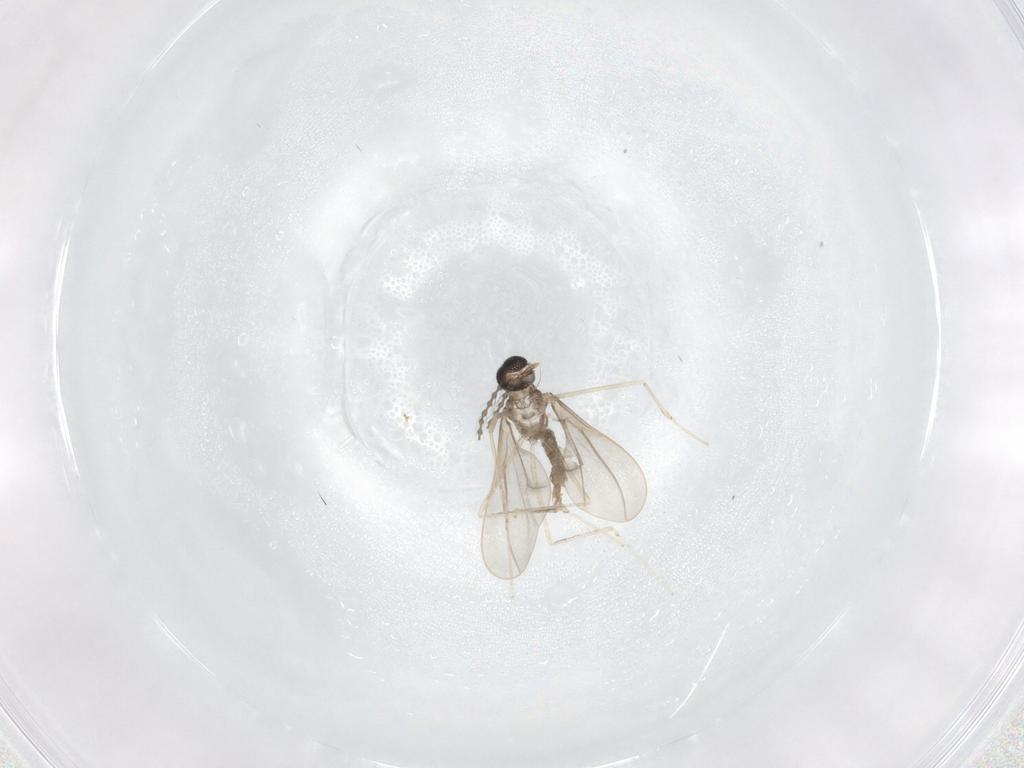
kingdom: Animalia
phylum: Arthropoda
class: Insecta
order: Diptera
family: Cecidomyiidae
